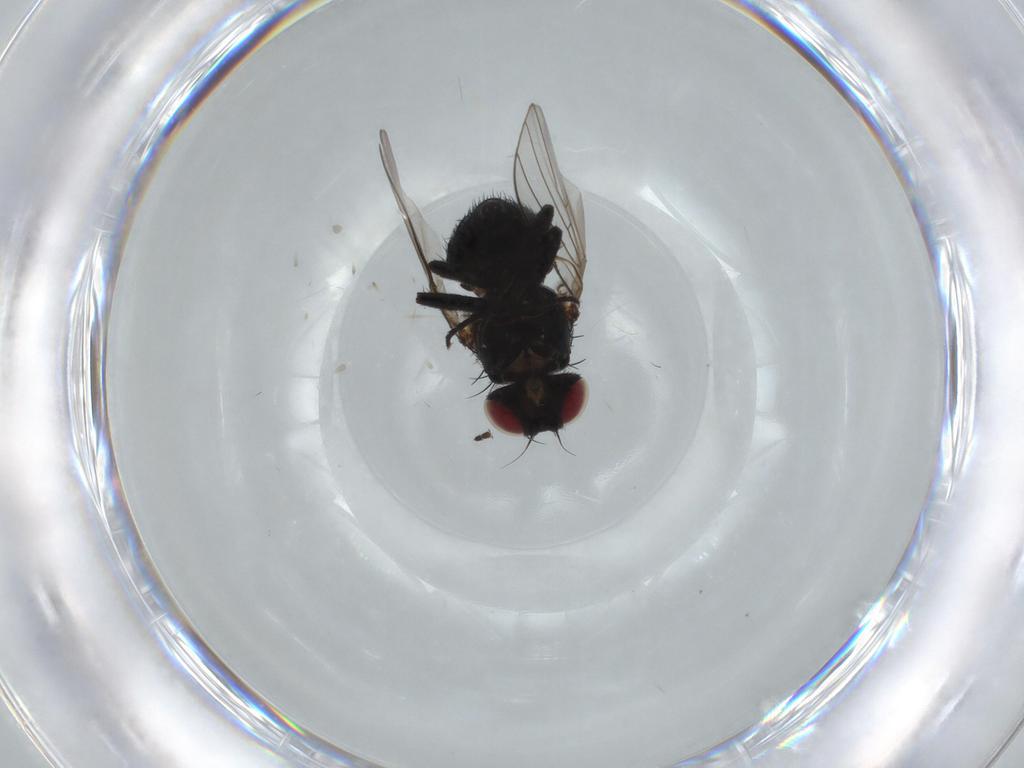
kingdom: Animalia
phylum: Arthropoda
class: Insecta
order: Diptera
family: Agromyzidae
